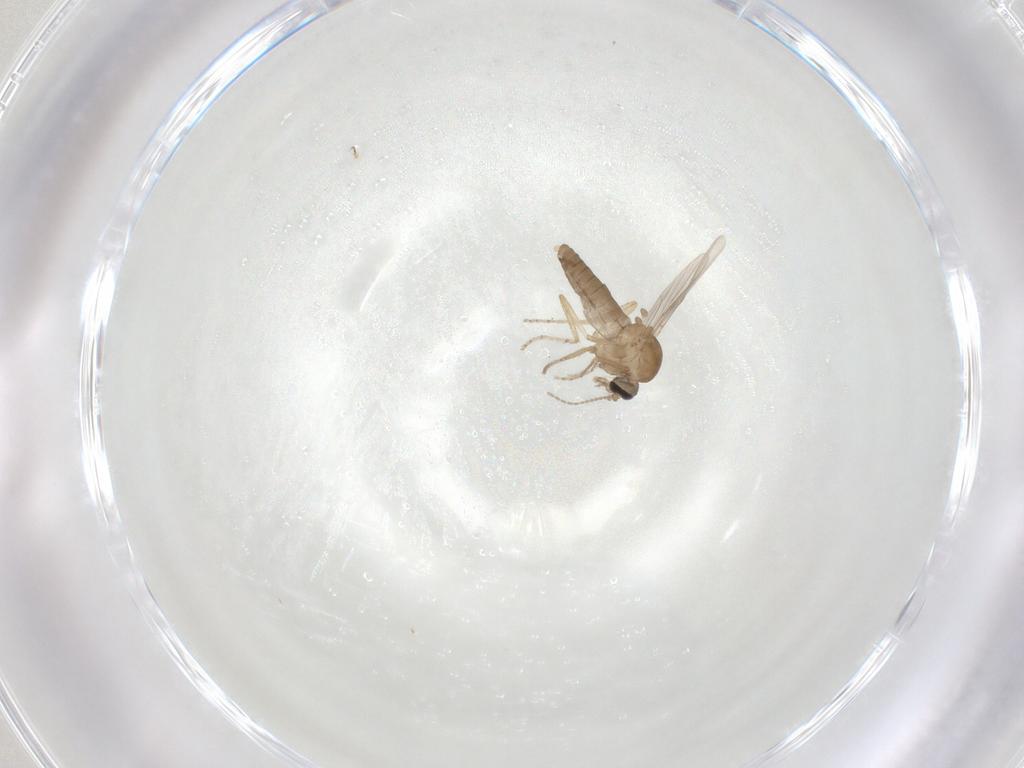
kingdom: Animalia
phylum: Arthropoda
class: Insecta
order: Diptera
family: Ceratopogonidae
